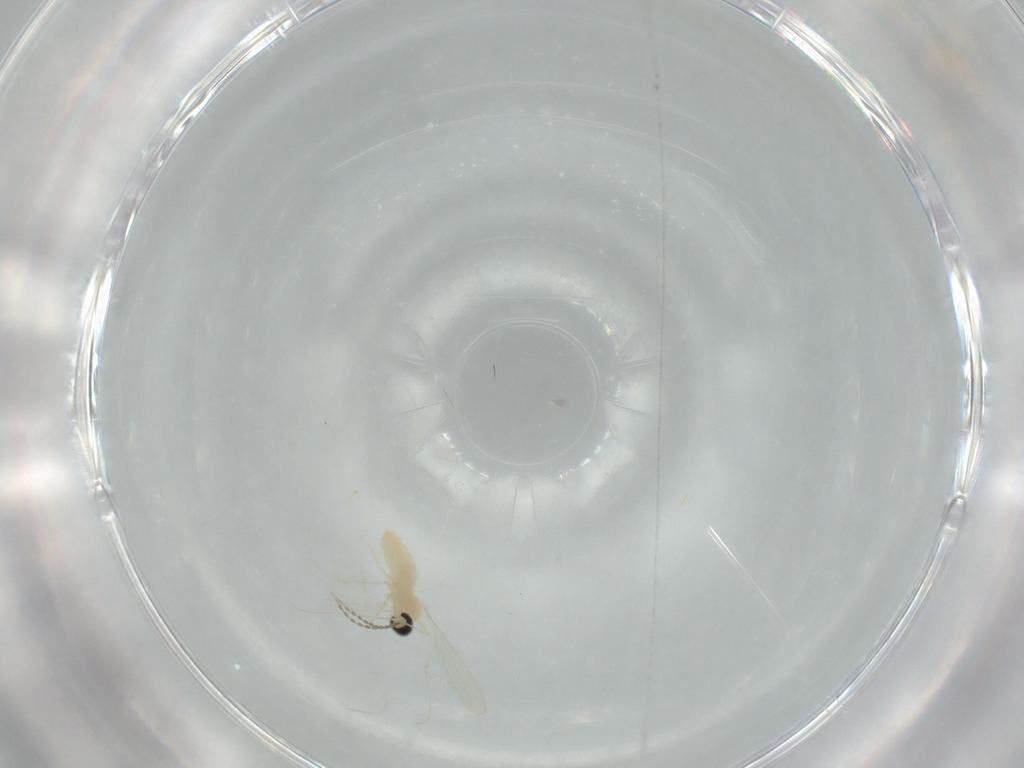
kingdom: Animalia
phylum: Arthropoda
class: Insecta
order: Diptera
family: Cecidomyiidae
